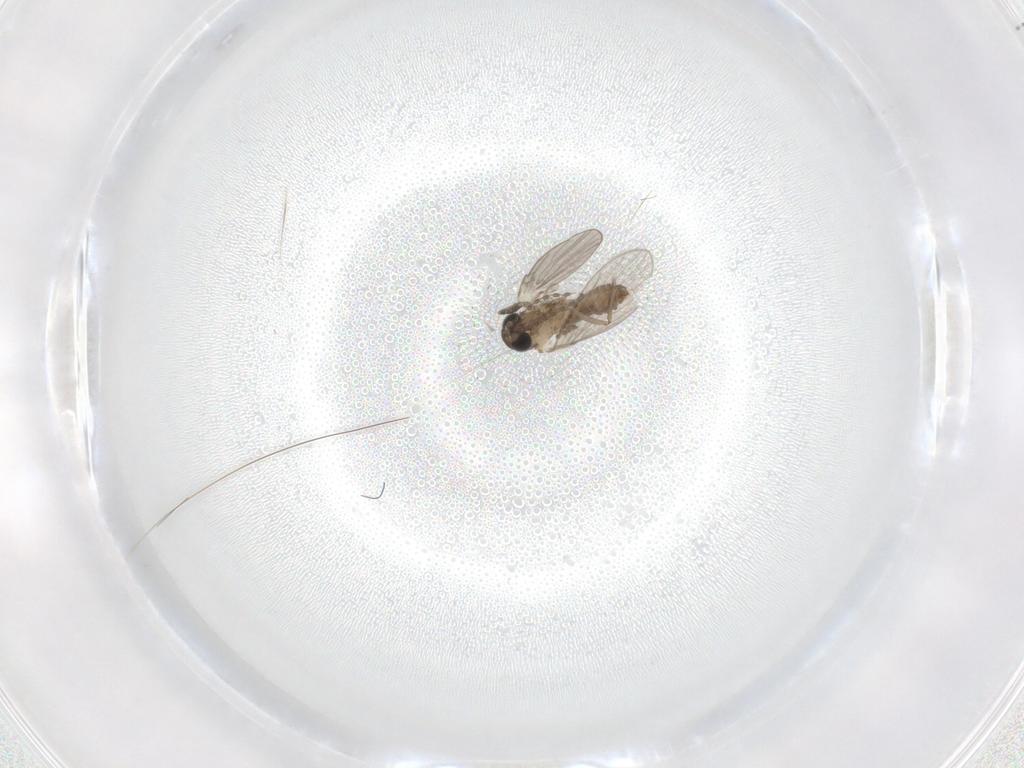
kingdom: Animalia
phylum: Arthropoda
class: Insecta
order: Diptera
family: Cecidomyiidae
